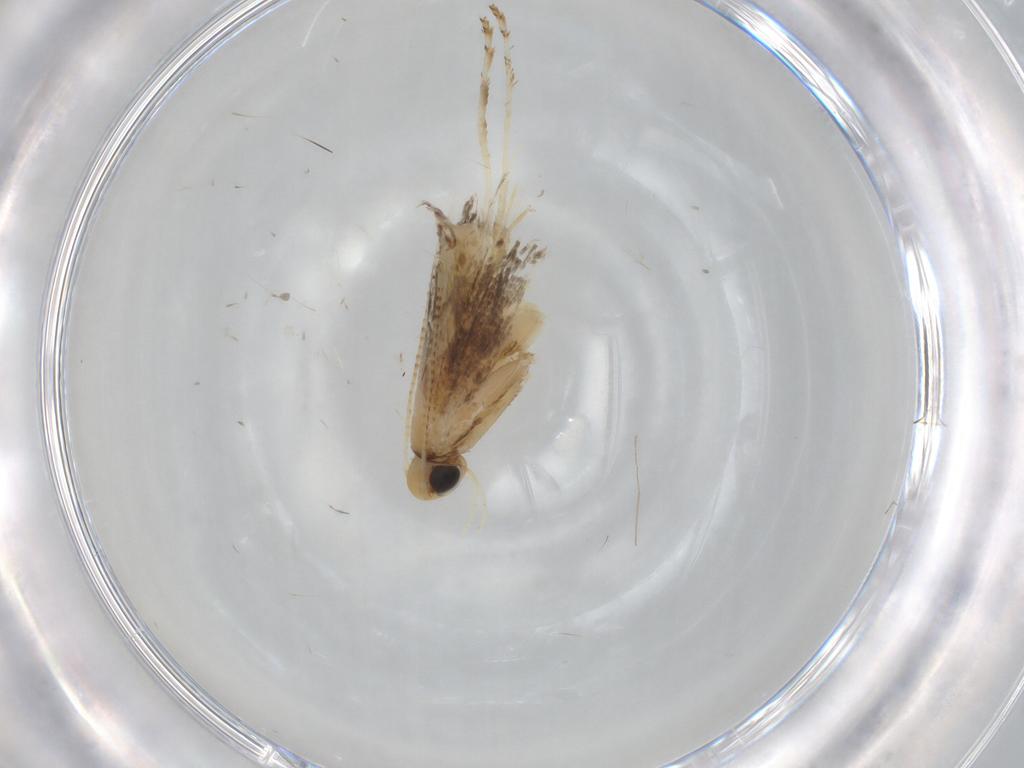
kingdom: Animalia
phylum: Arthropoda
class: Insecta
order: Lepidoptera
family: Gracillariidae
